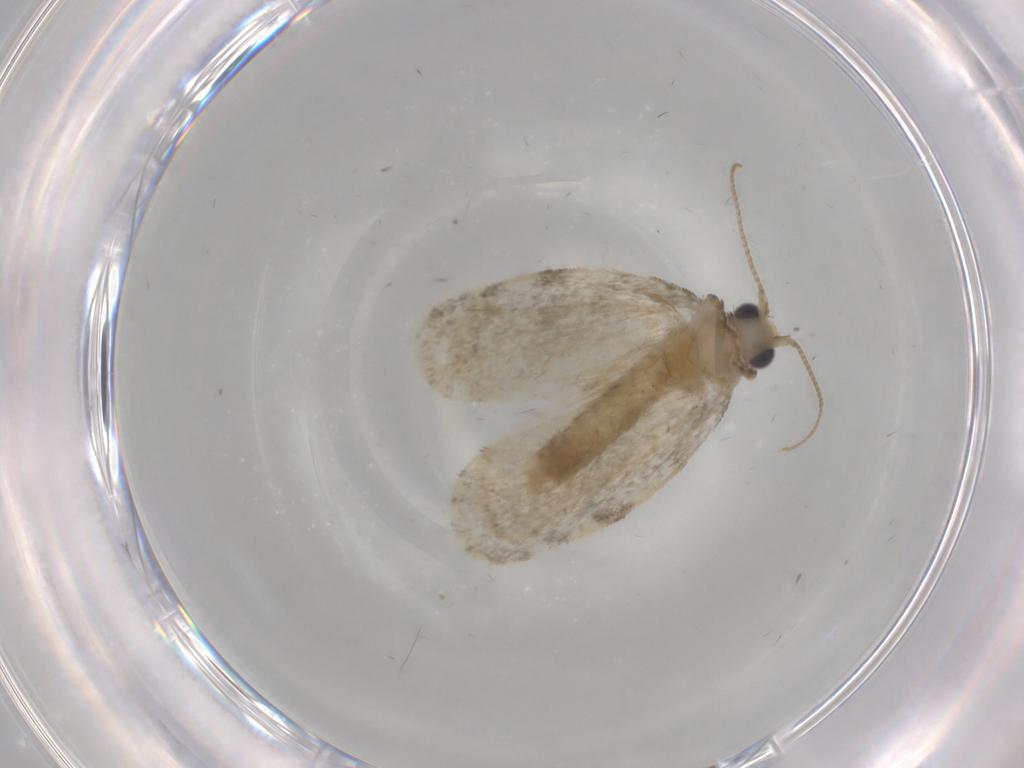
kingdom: Animalia
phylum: Arthropoda
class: Insecta
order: Lepidoptera
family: Psychidae
